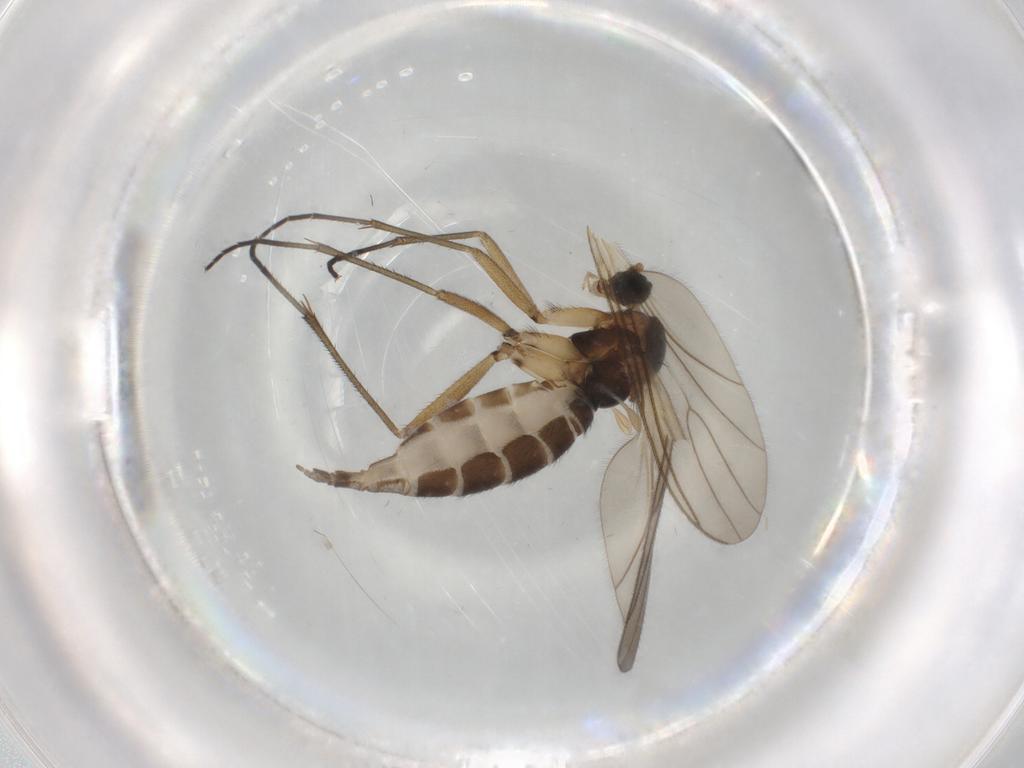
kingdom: Animalia
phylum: Arthropoda
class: Insecta
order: Diptera
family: Sciaridae
